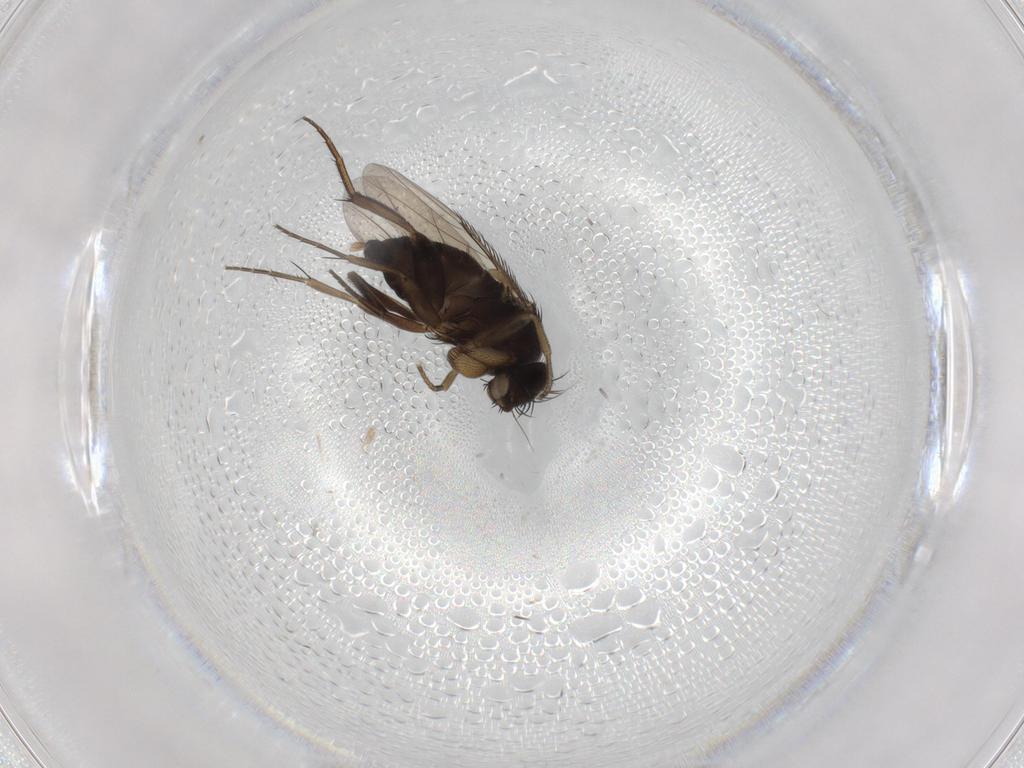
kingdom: Animalia
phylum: Arthropoda
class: Insecta
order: Diptera
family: Phoridae
